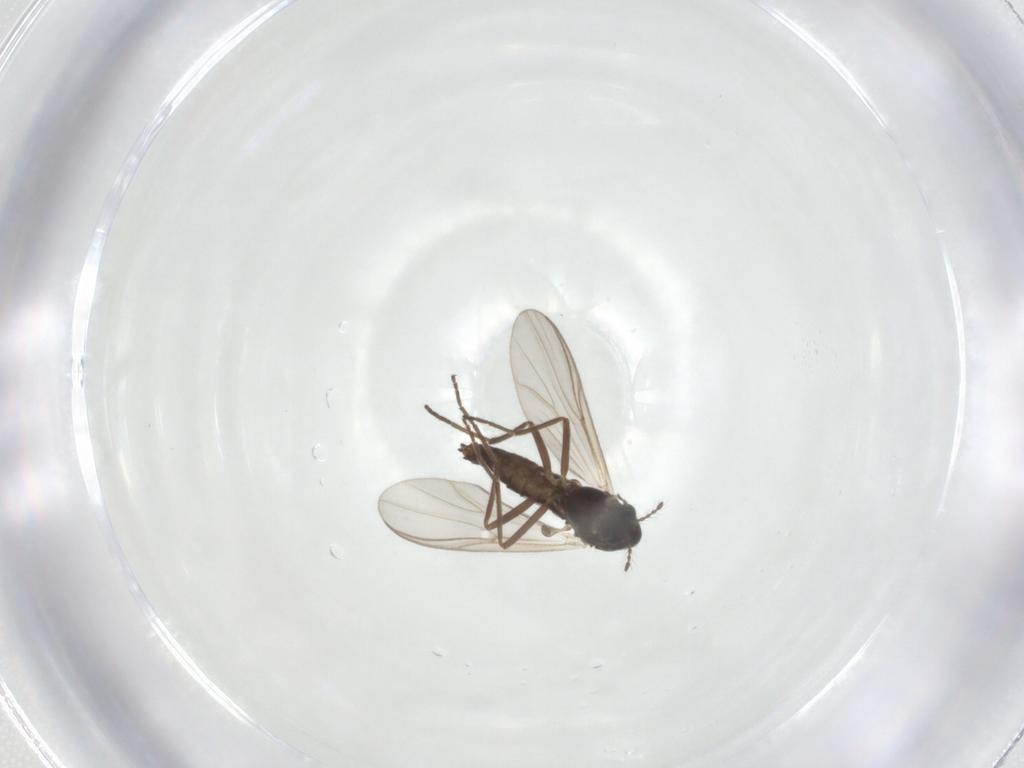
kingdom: Animalia
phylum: Arthropoda
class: Insecta
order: Diptera
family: Chironomidae
